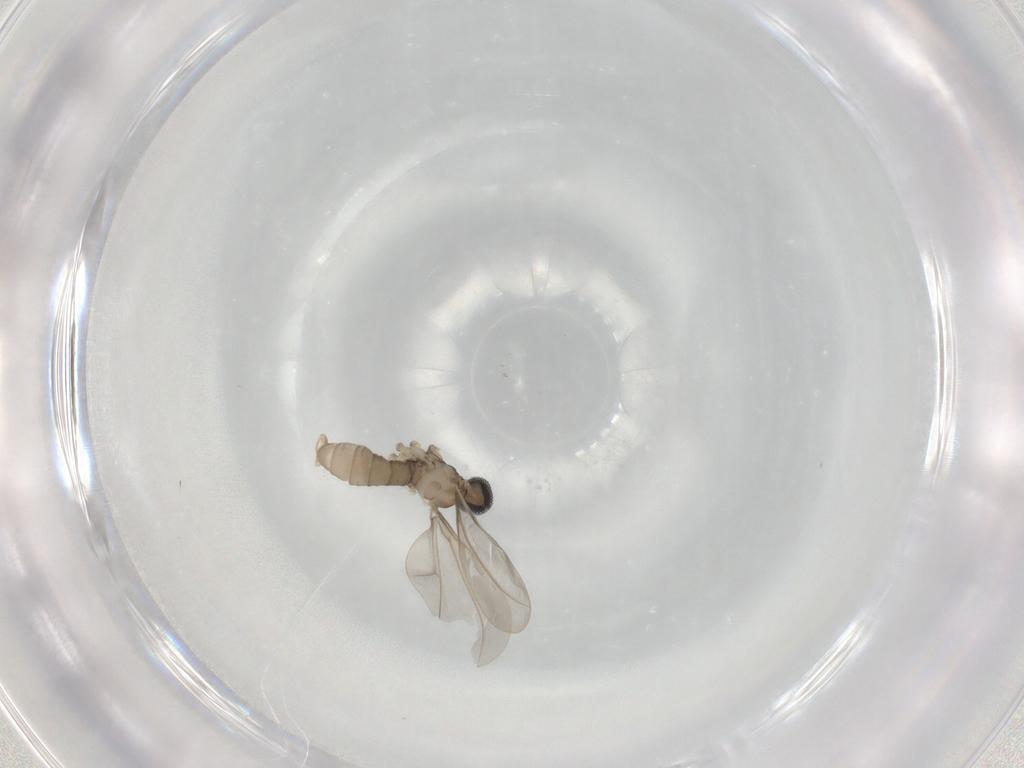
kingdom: Animalia
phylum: Arthropoda
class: Insecta
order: Diptera
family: Cecidomyiidae
